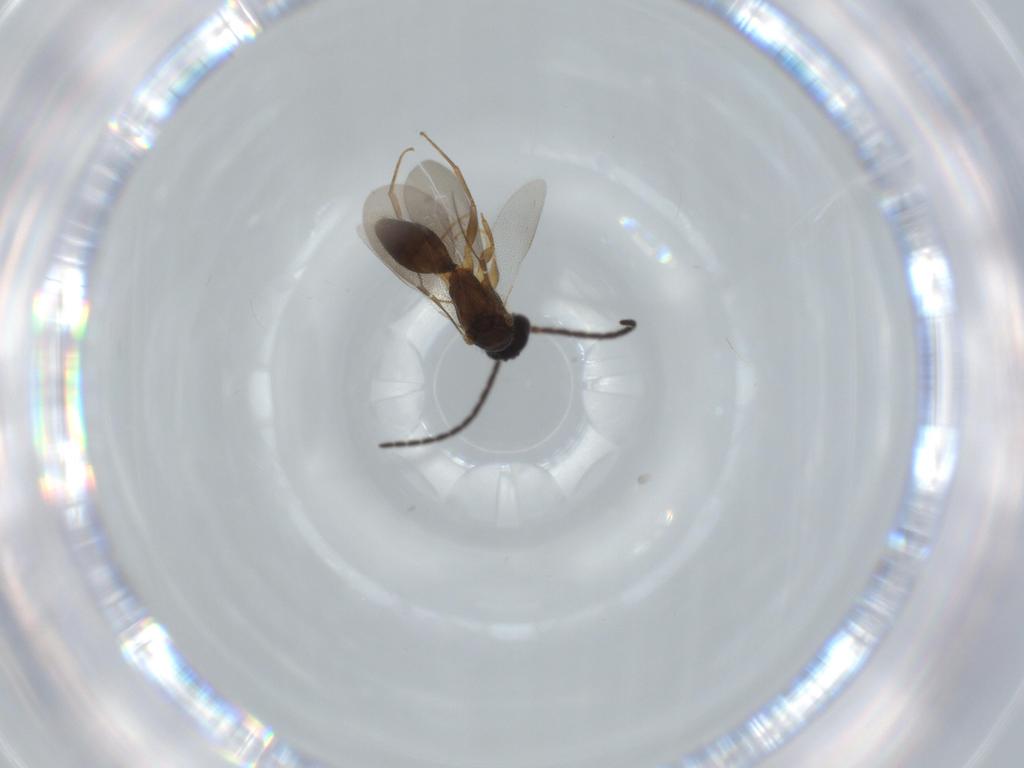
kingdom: Animalia
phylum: Arthropoda
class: Insecta
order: Hymenoptera
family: Bethylidae
